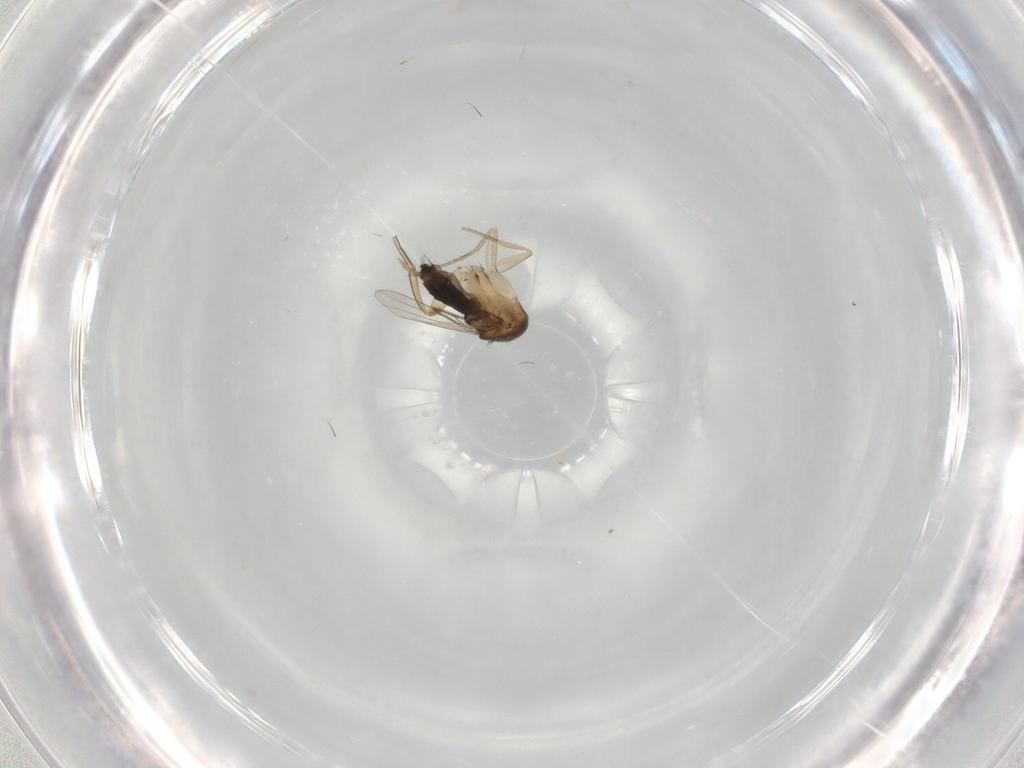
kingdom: Animalia
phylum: Arthropoda
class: Insecta
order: Diptera
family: Phoridae
